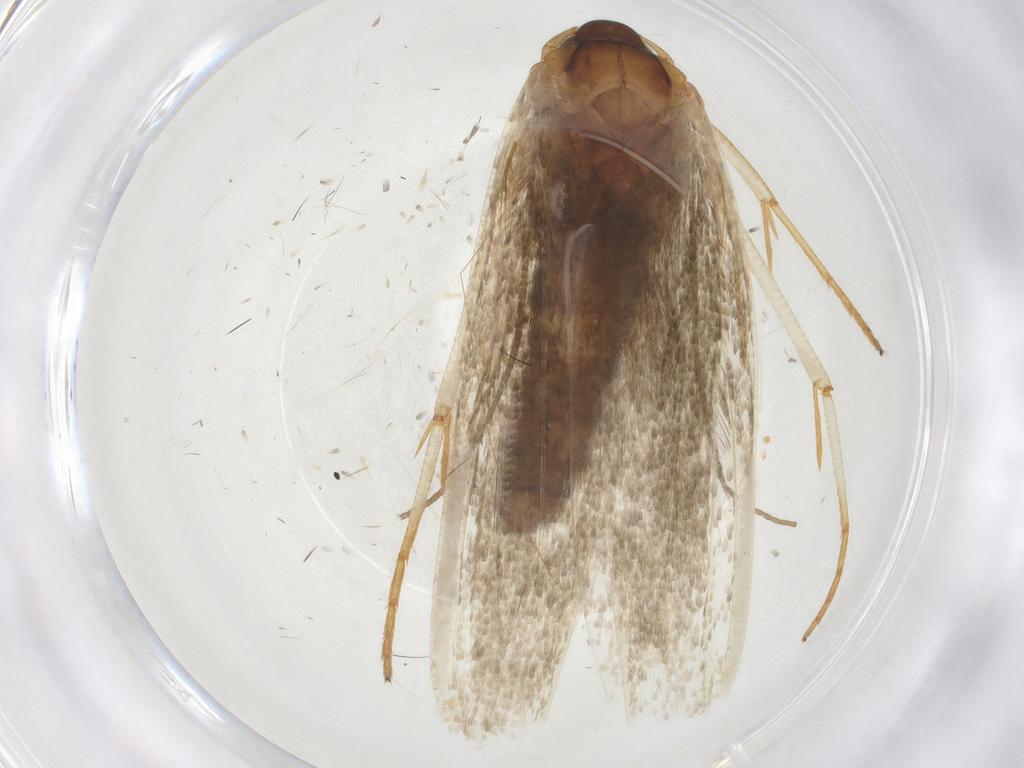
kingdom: Animalia
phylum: Arthropoda
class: Insecta
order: Lepidoptera
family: Blastobasidae
